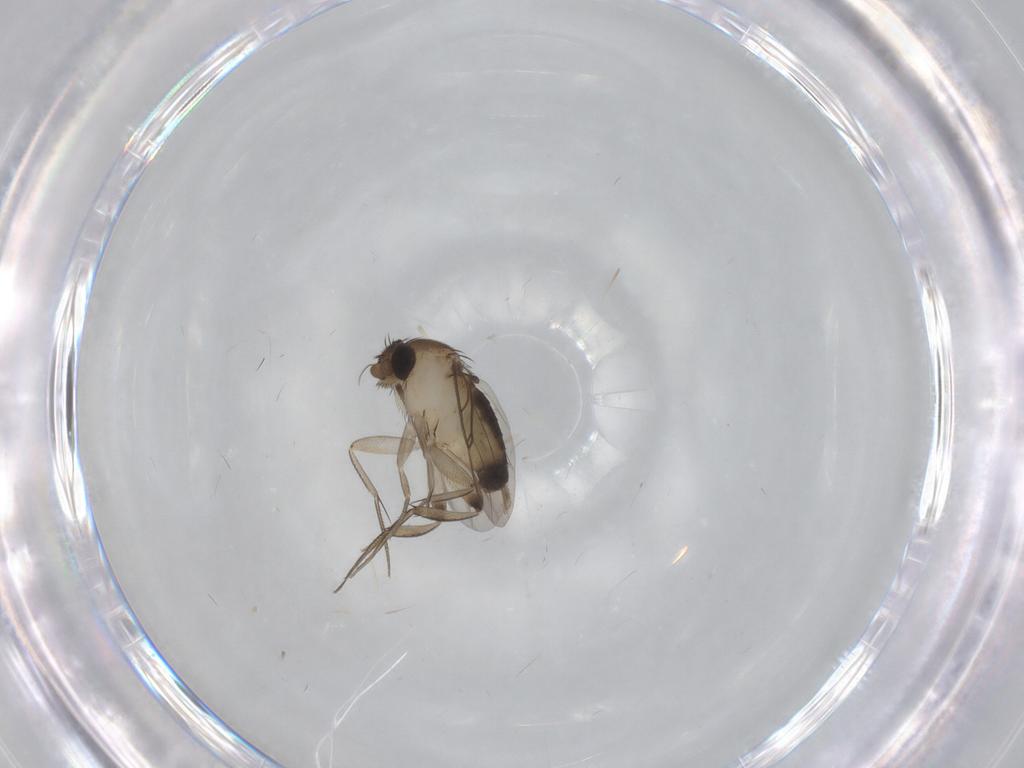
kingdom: Animalia
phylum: Arthropoda
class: Insecta
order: Diptera
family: Phoridae
